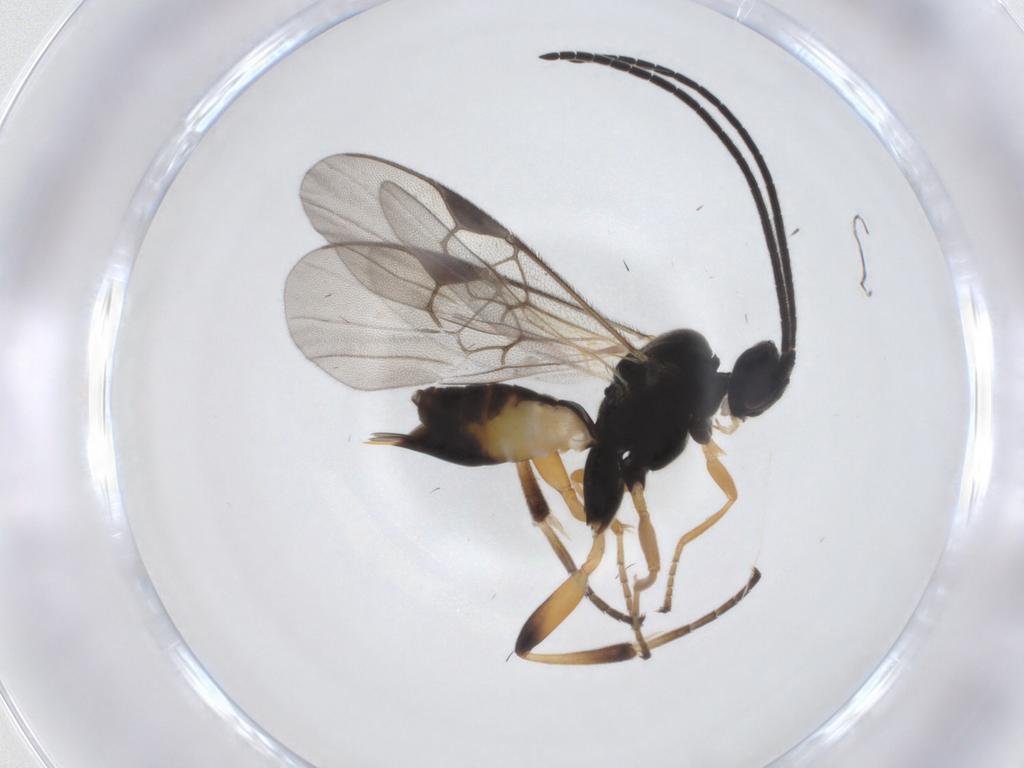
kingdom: Animalia
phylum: Arthropoda
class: Insecta
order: Hymenoptera
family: Braconidae
